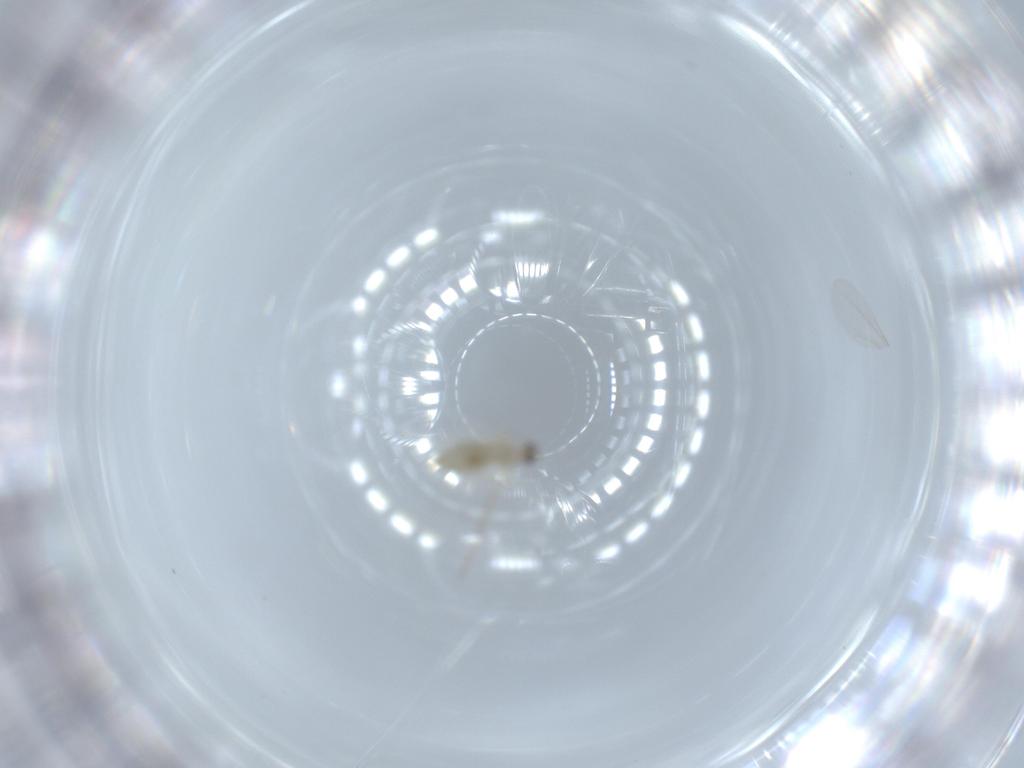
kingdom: Animalia
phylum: Arthropoda
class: Insecta
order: Diptera
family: Cecidomyiidae
